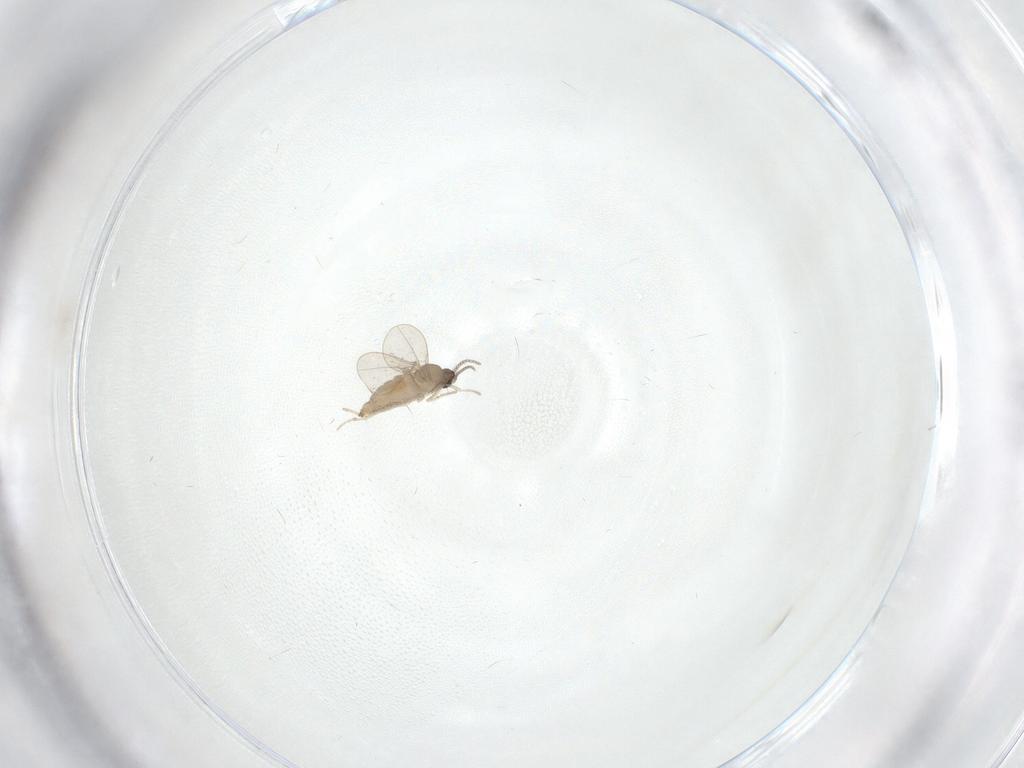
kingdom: Animalia
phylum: Arthropoda
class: Insecta
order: Diptera
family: Chironomidae
